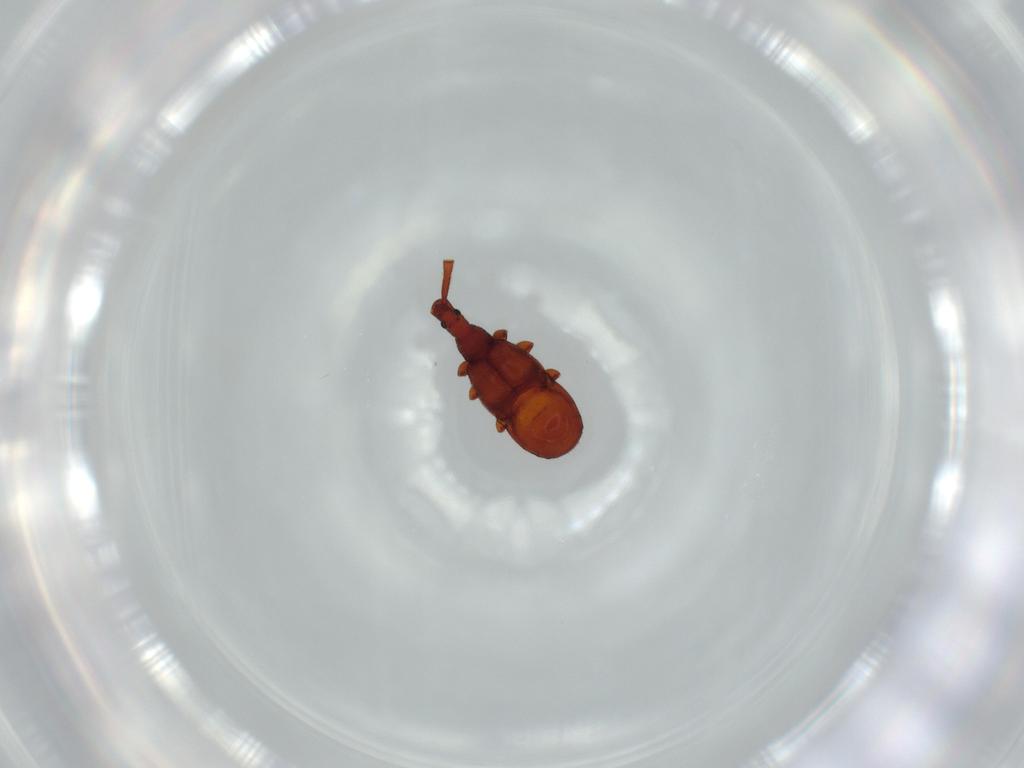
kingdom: Animalia
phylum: Arthropoda
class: Insecta
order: Coleoptera
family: Staphylinidae
